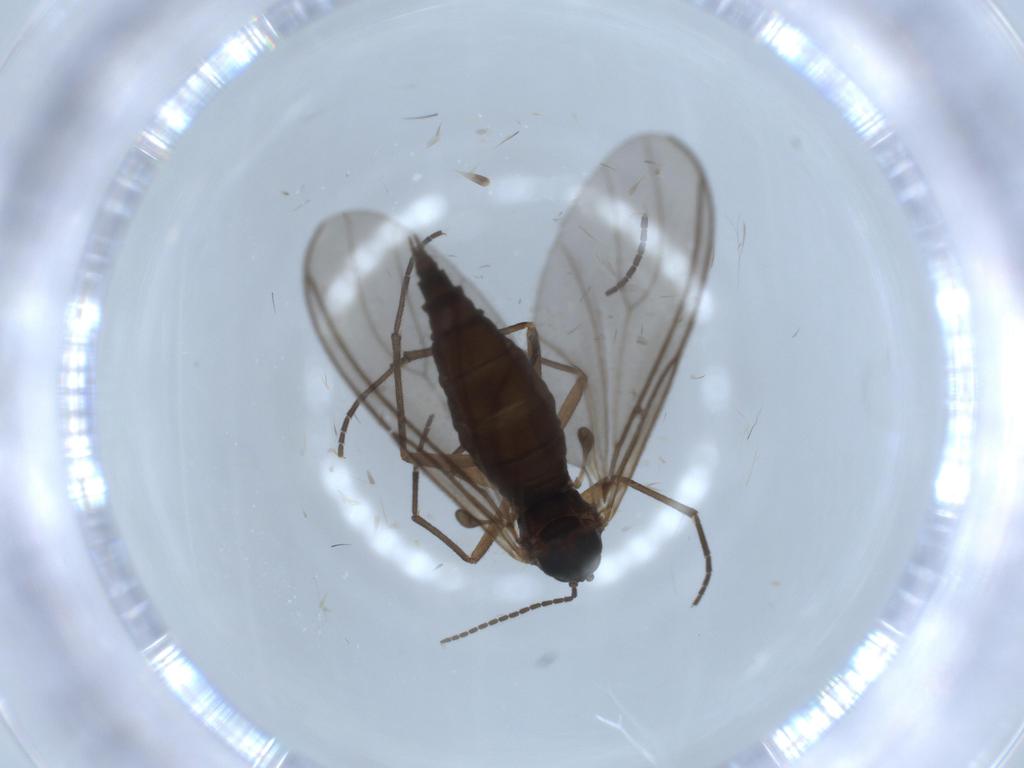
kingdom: Animalia
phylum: Arthropoda
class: Insecta
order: Diptera
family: Sciaridae
